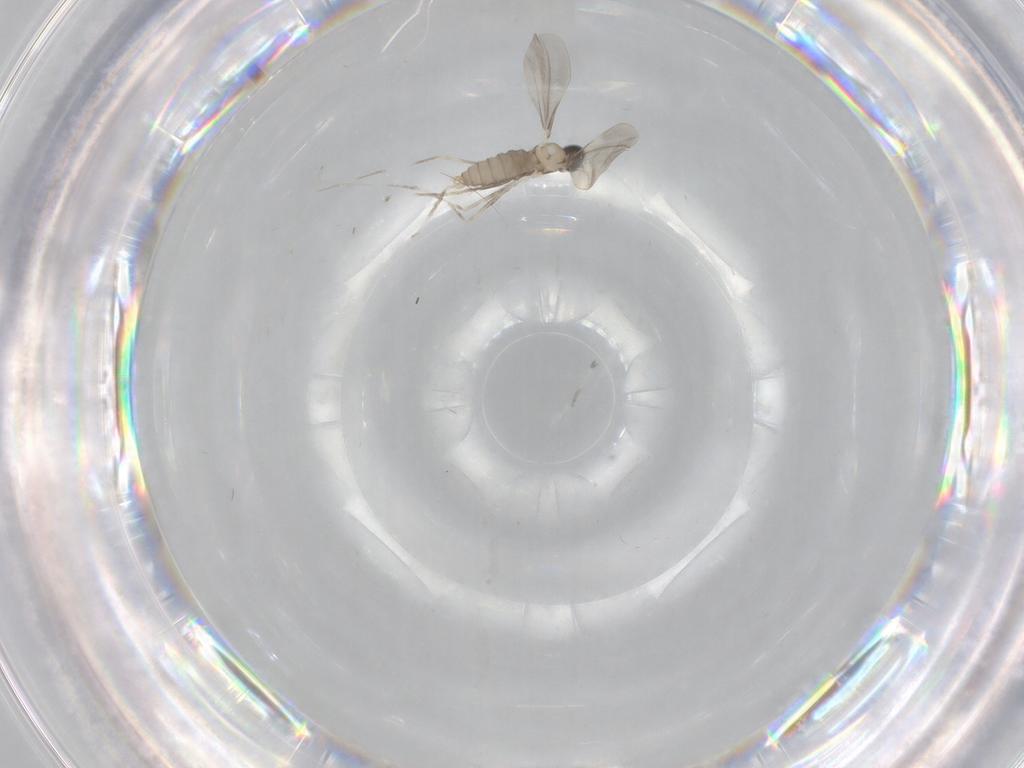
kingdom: Animalia
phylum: Arthropoda
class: Insecta
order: Diptera
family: Cecidomyiidae
